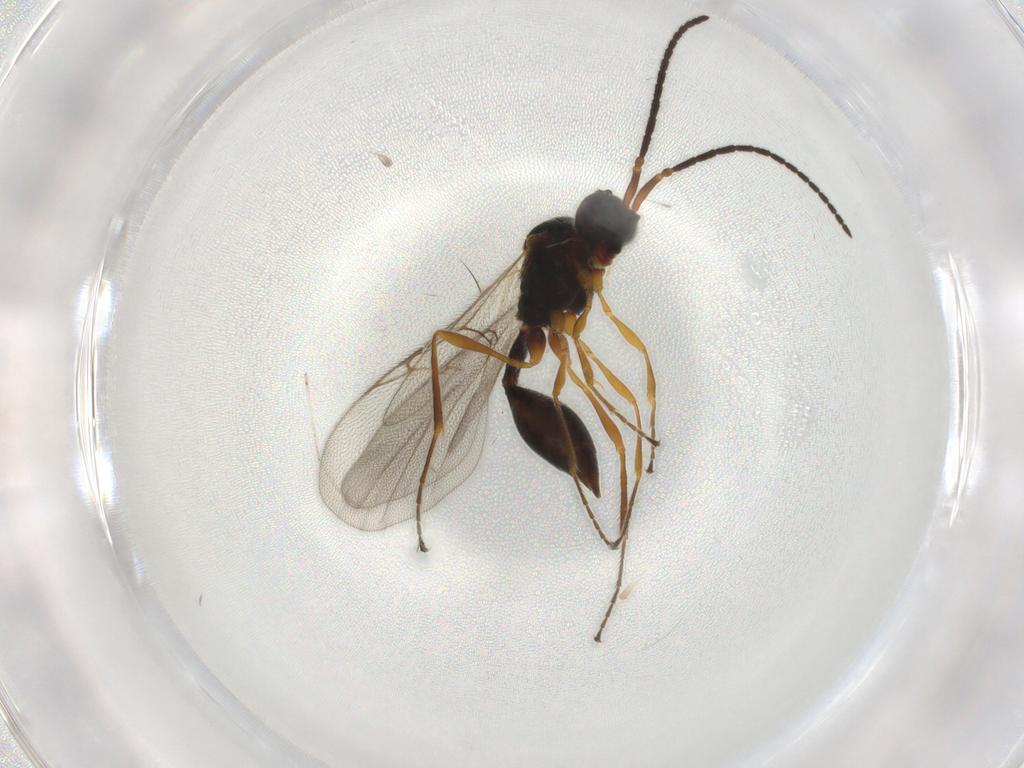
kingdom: Animalia
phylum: Arthropoda
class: Insecta
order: Hymenoptera
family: Diapriidae
